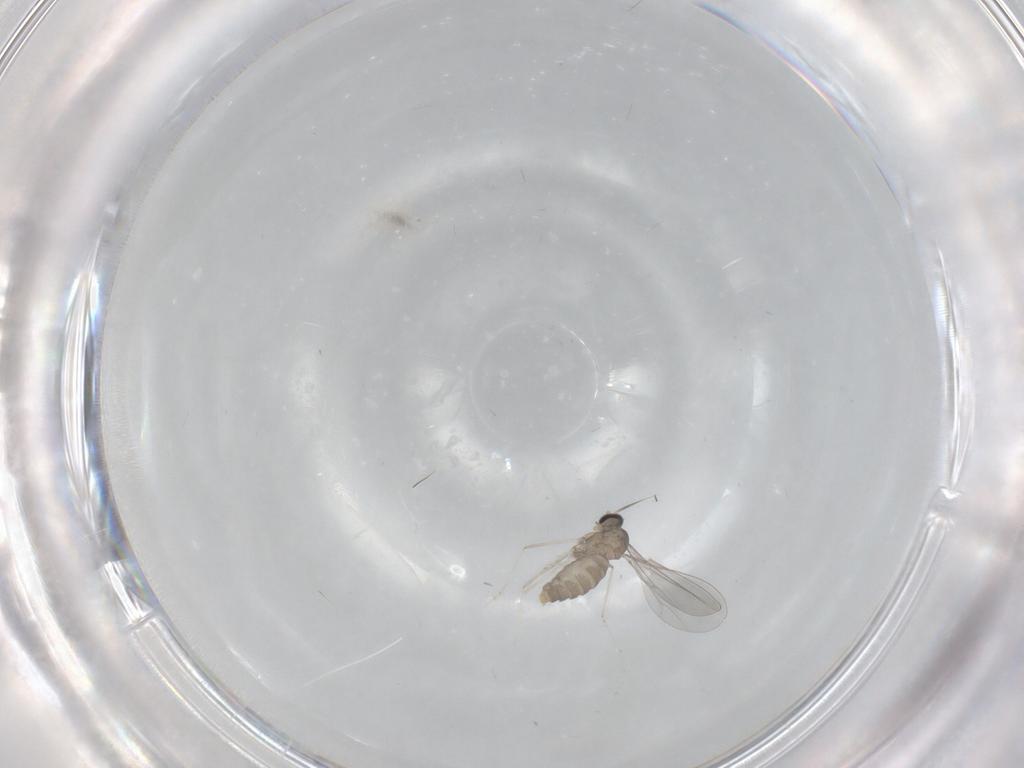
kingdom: Animalia
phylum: Arthropoda
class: Insecta
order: Diptera
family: Cecidomyiidae
